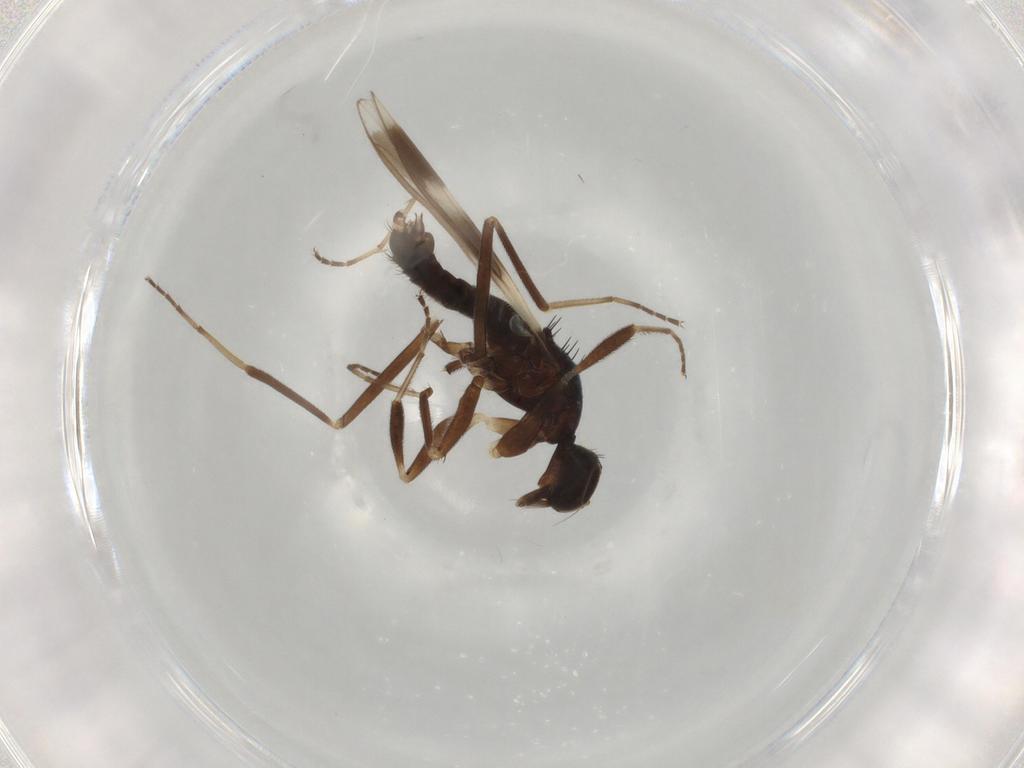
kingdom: Animalia
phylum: Arthropoda
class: Insecta
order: Diptera
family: Hybotidae
